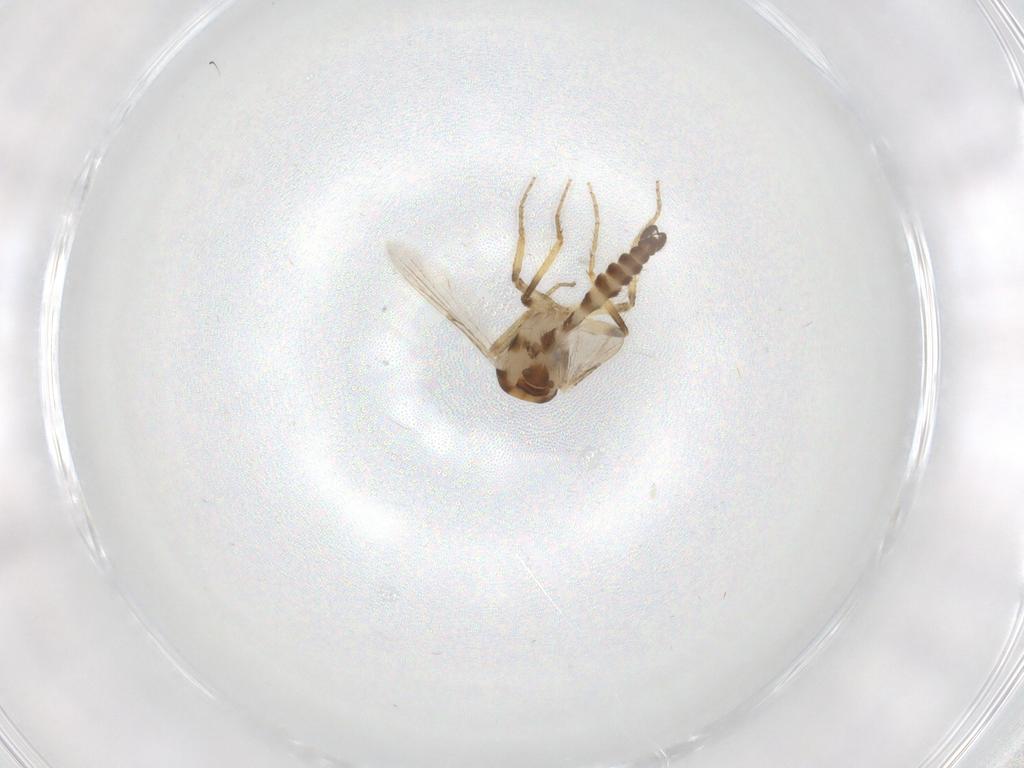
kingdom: Animalia
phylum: Arthropoda
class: Insecta
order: Diptera
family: Ceratopogonidae
